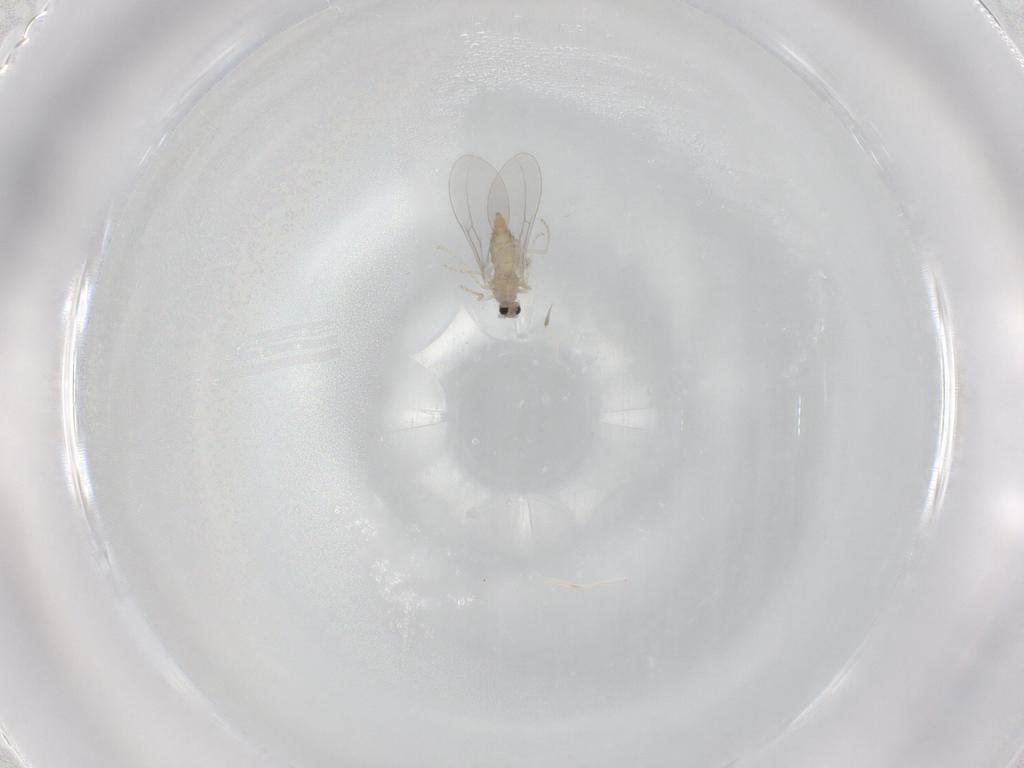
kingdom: Animalia
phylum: Arthropoda
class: Insecta
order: Diptera
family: Cecidomyiidae
